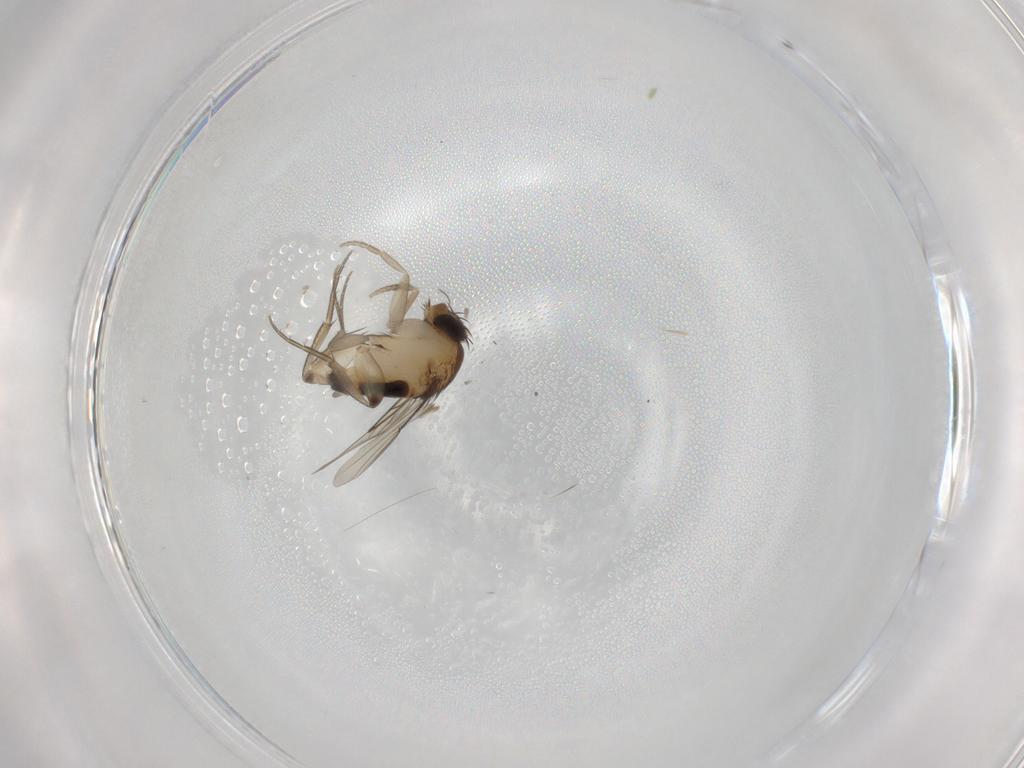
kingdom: Animalia
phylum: Arthropoda
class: Insecta
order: Diptera
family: Phoridae
